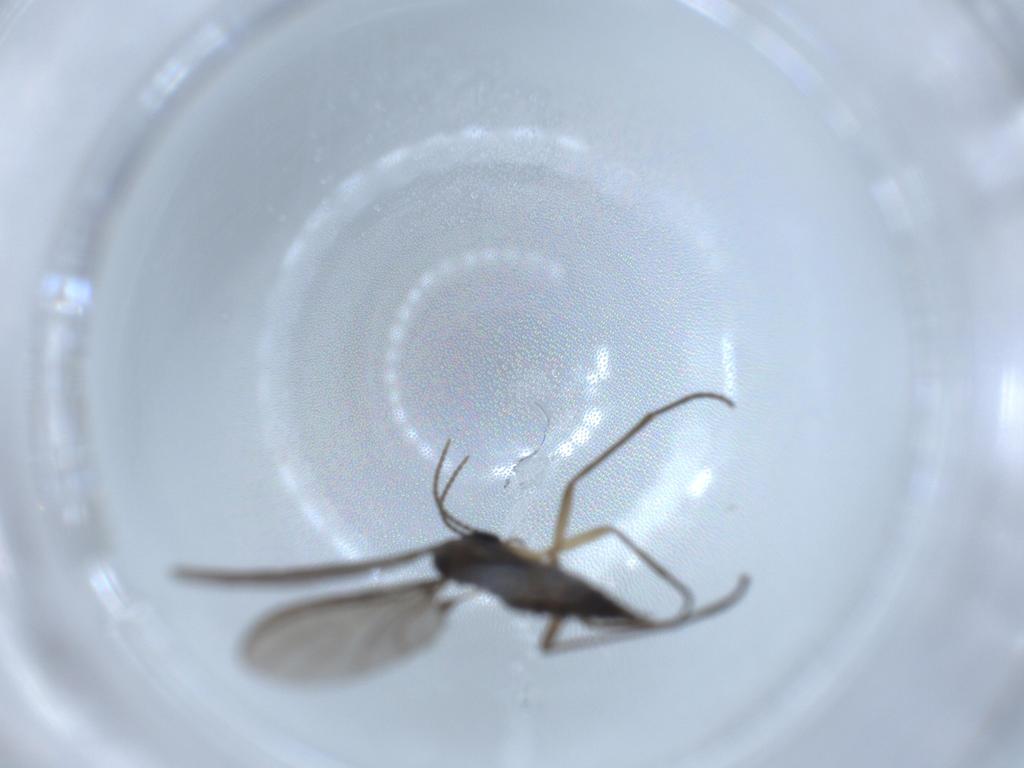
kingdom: Animalia
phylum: Arthropoda
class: Insecta
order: Diptera
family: Sciaridae
